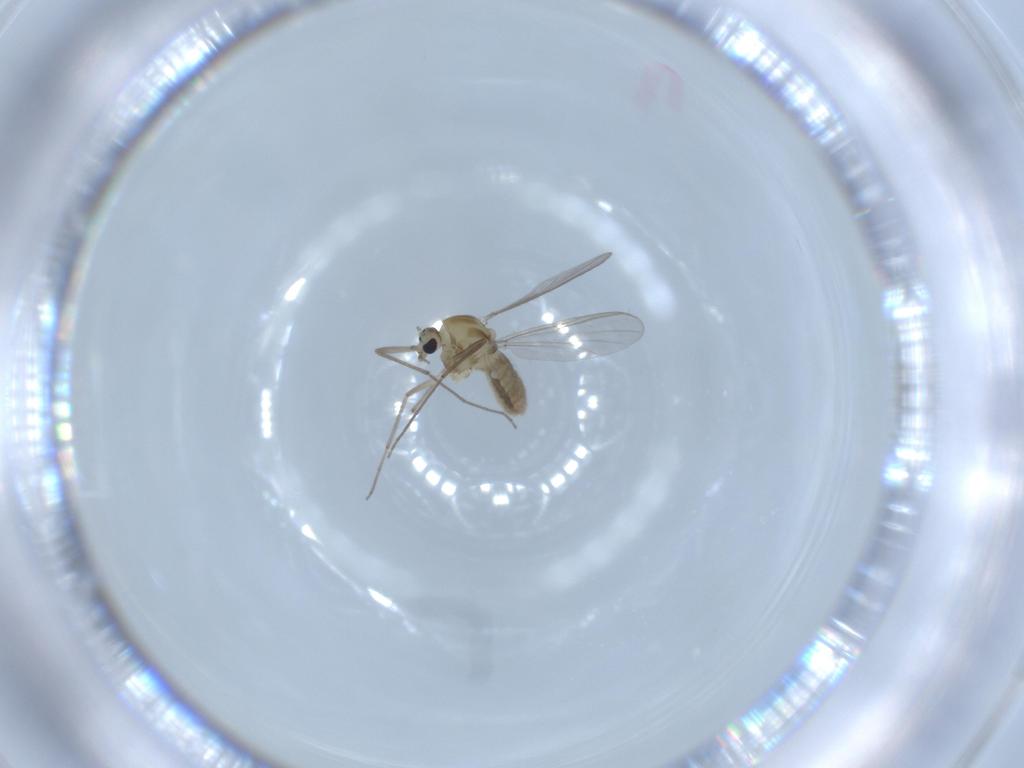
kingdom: Animalia
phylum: Arthropoda
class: Insecta
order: Diptera
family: Chironomidae
